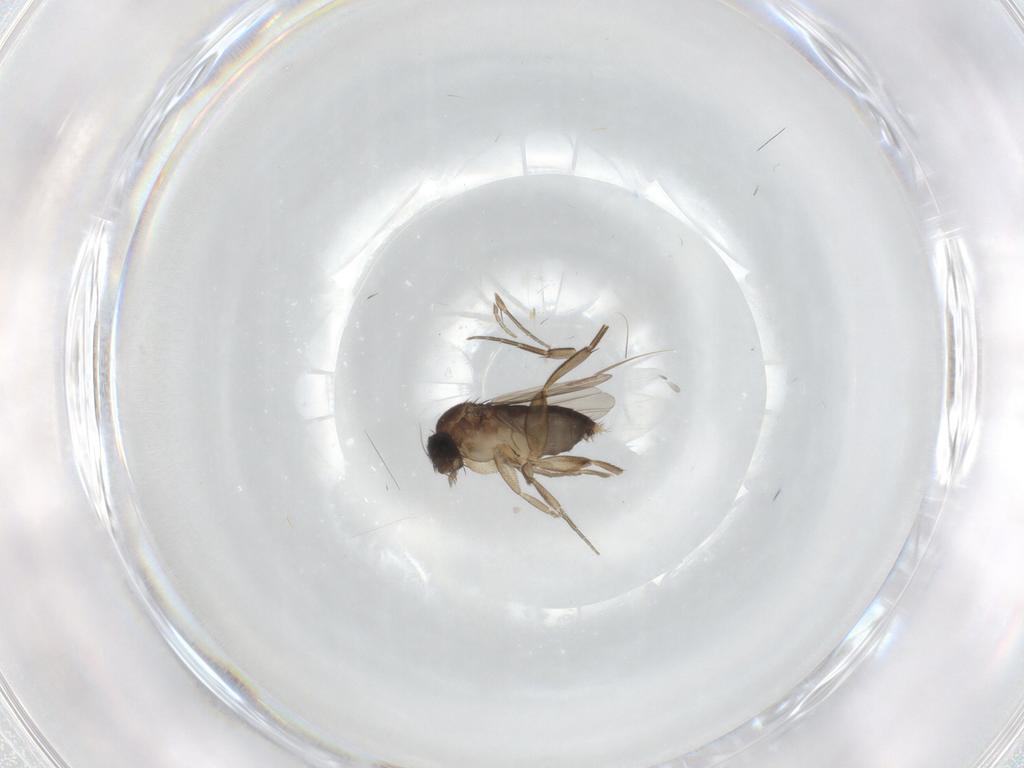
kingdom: Animalia
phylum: Arthropoda
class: Insecta
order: Diptera
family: Phoridae
